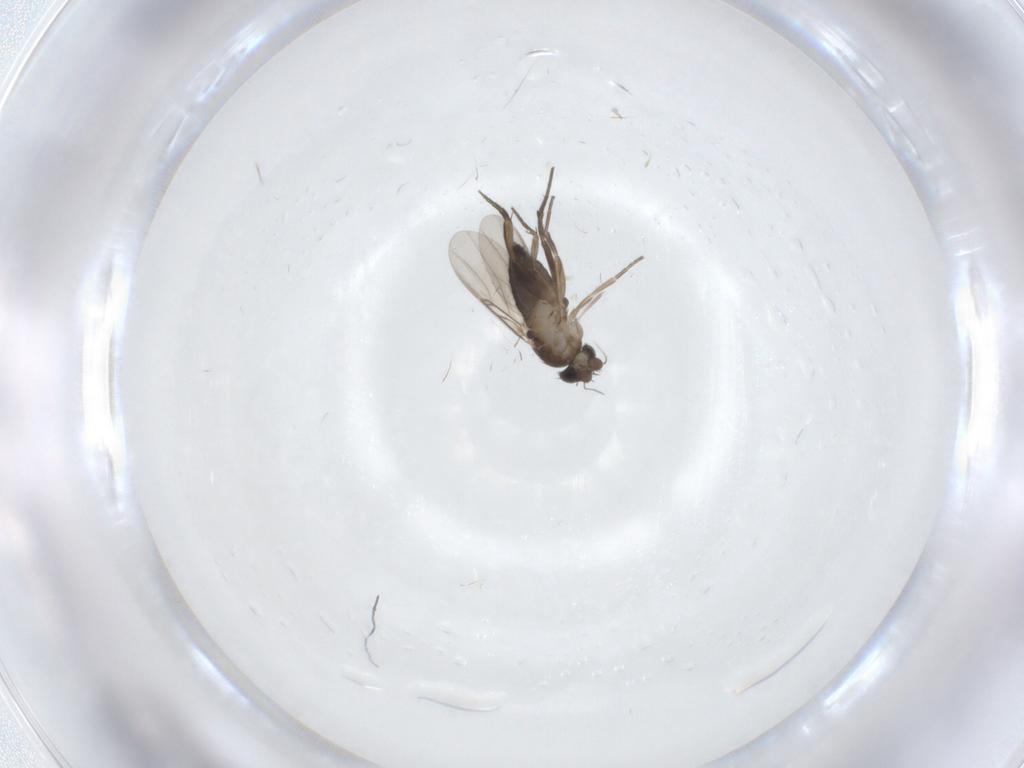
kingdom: Animalia
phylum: Arthropoda
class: Insecta
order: Diptera
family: Phoridae
